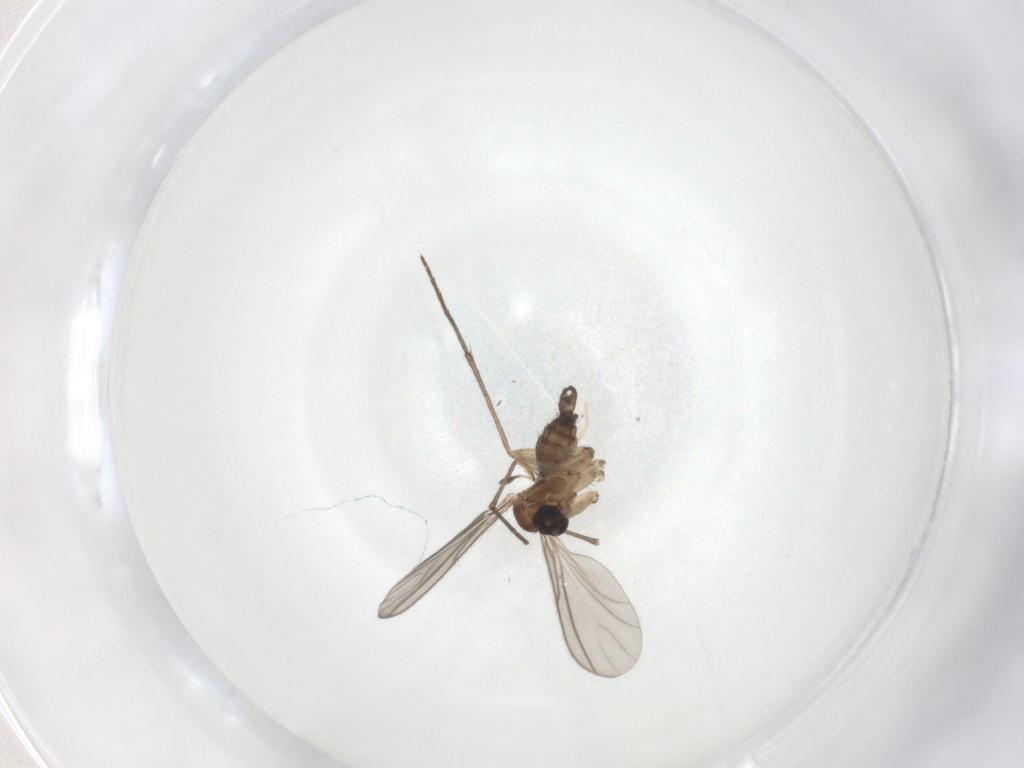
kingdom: Animalia
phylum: Arthropoda
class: Insecta
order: Diptera
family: Sciaridae
